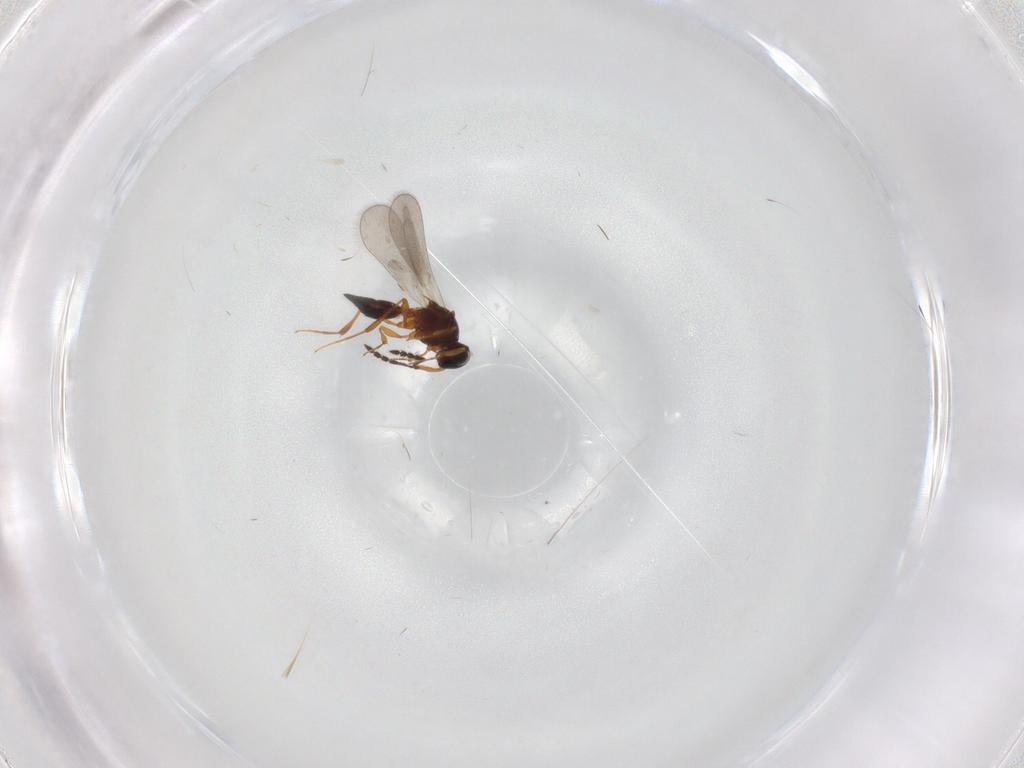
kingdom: Animalia
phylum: Arthropoda
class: Insecta
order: Hymenoptera
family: Platygastridae
